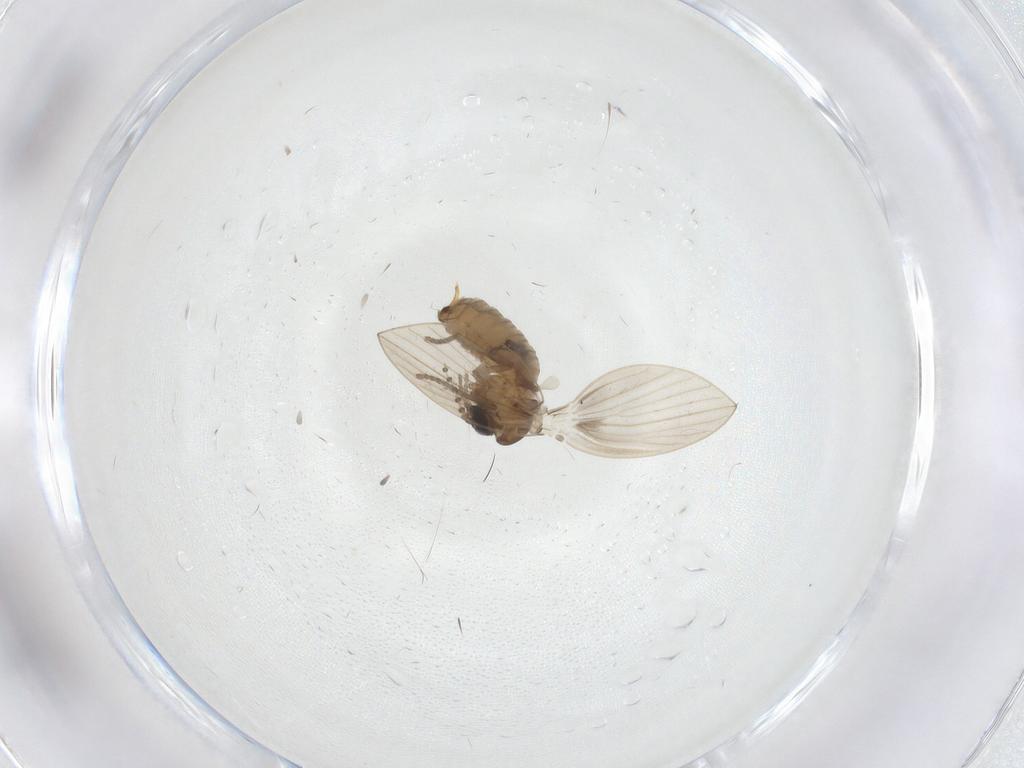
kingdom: Animalia
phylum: Arthropoda
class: Insecta
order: Diptera
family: Psychodidae
